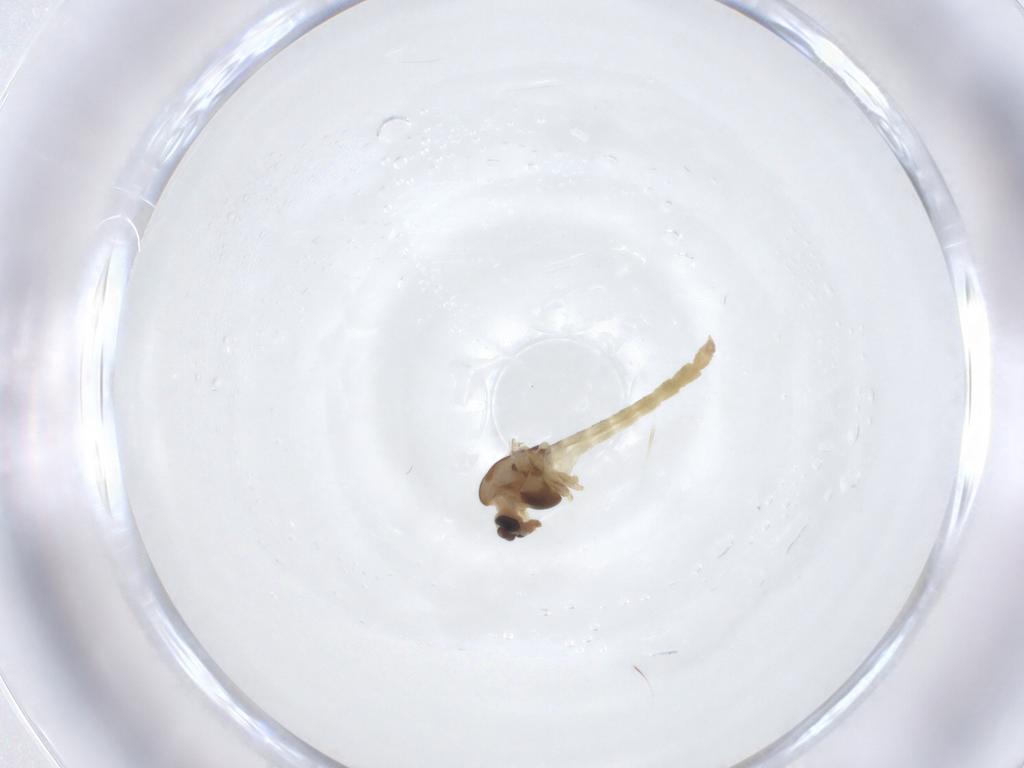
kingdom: Animalia
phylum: Arthropoda
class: Insecta
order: Diptera
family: Chironomidae
